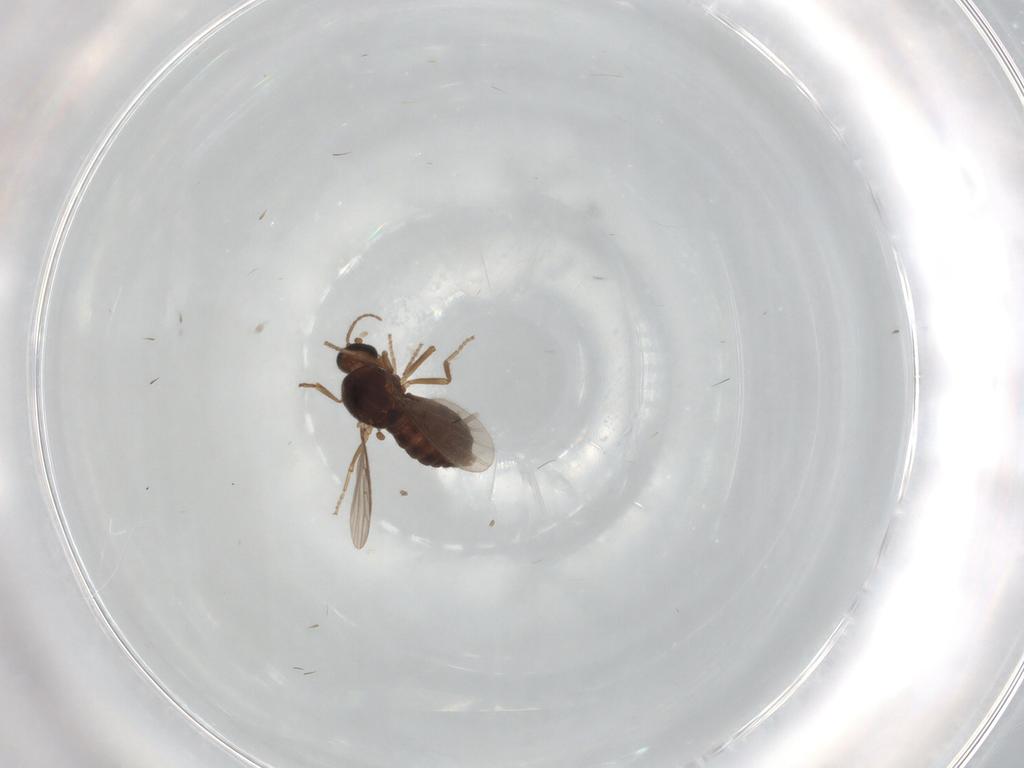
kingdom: Animalia
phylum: Arthropoda
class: Insecta
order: Diptera
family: Ceratopogonidae
